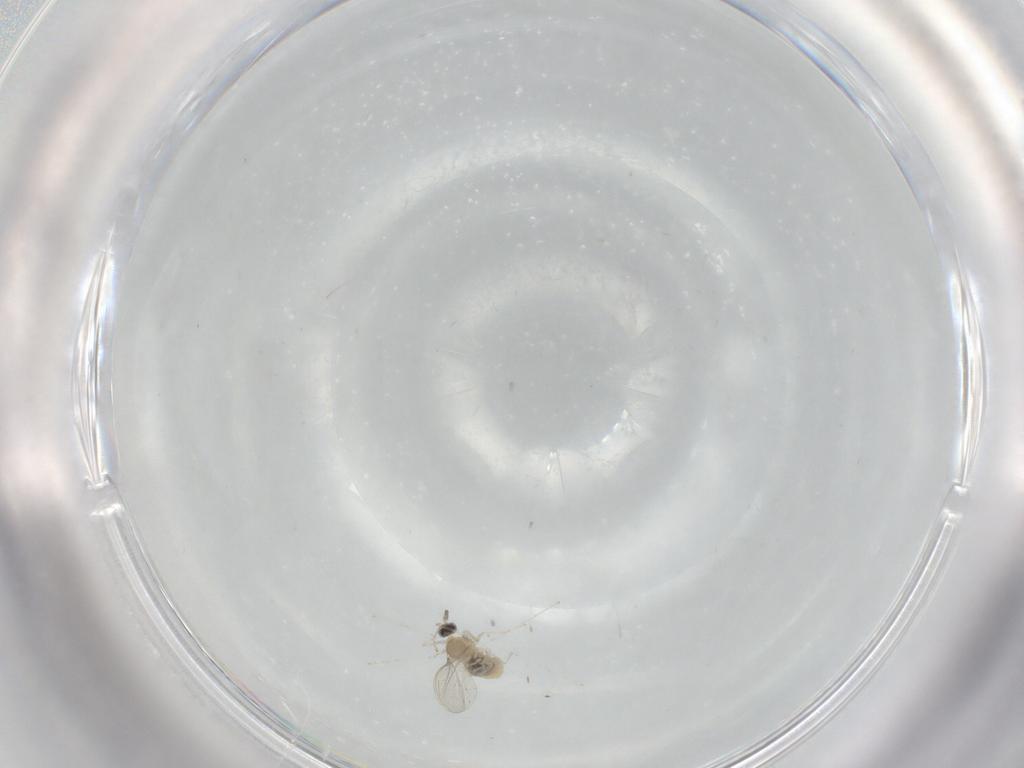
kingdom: Animalia
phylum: Arthropoda
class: Insecta
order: Diptera
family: Cecidomyiidae
